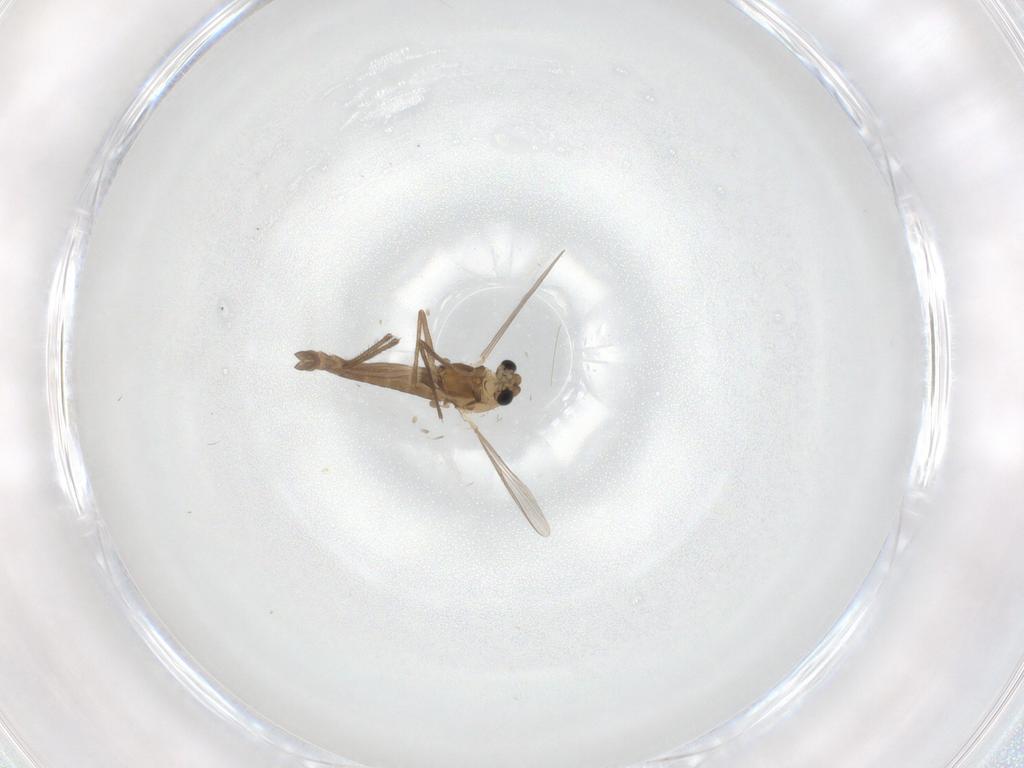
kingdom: Animalia
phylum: Arthropoda
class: Insecta
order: Diptera
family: Chironomidae
